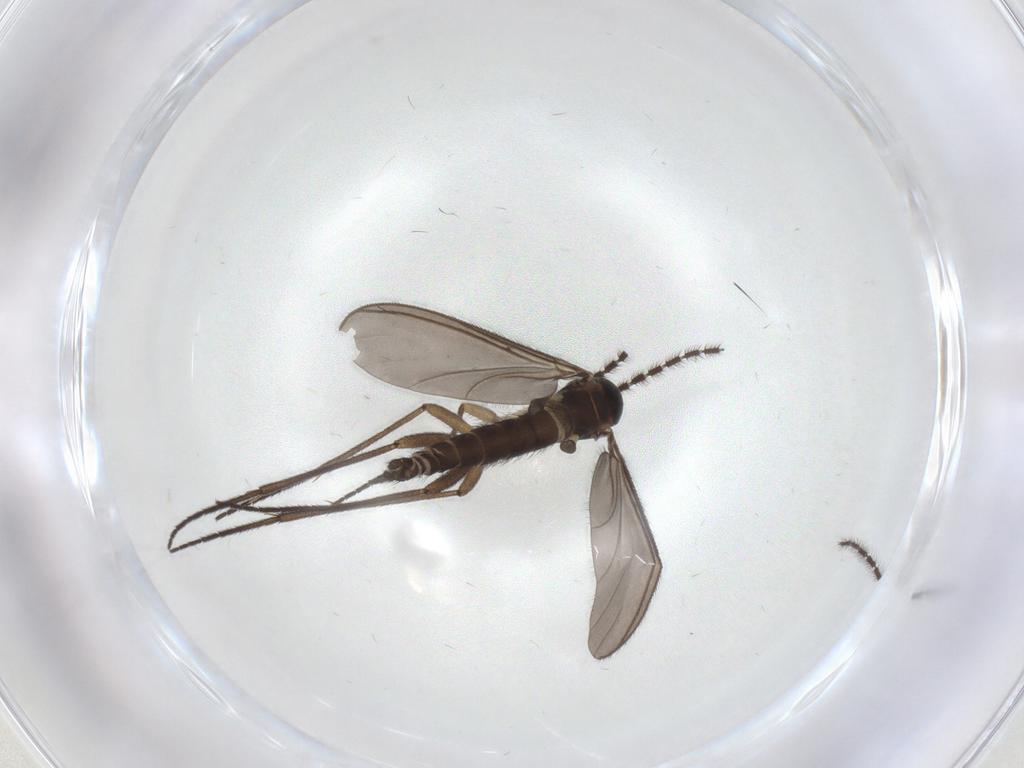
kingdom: Animalia
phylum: Arthropoda
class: Insecta
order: Diptera
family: Sciaridae
